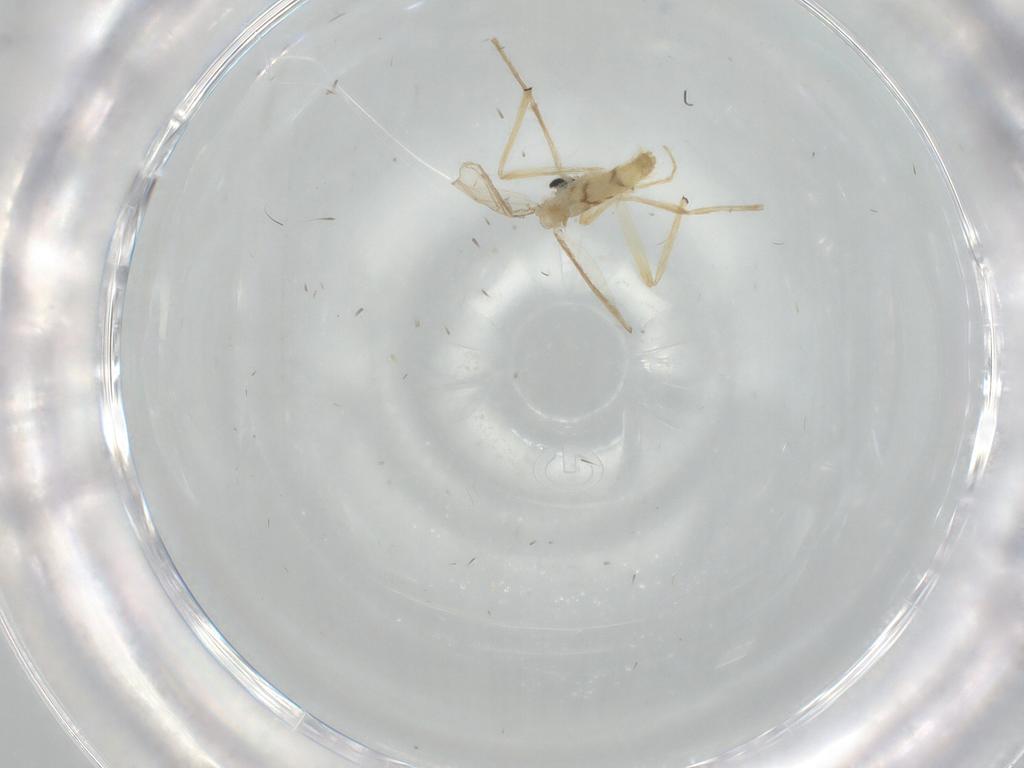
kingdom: Animalia
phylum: Arthropoda
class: Insecta
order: Diptera
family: Chironomidae
